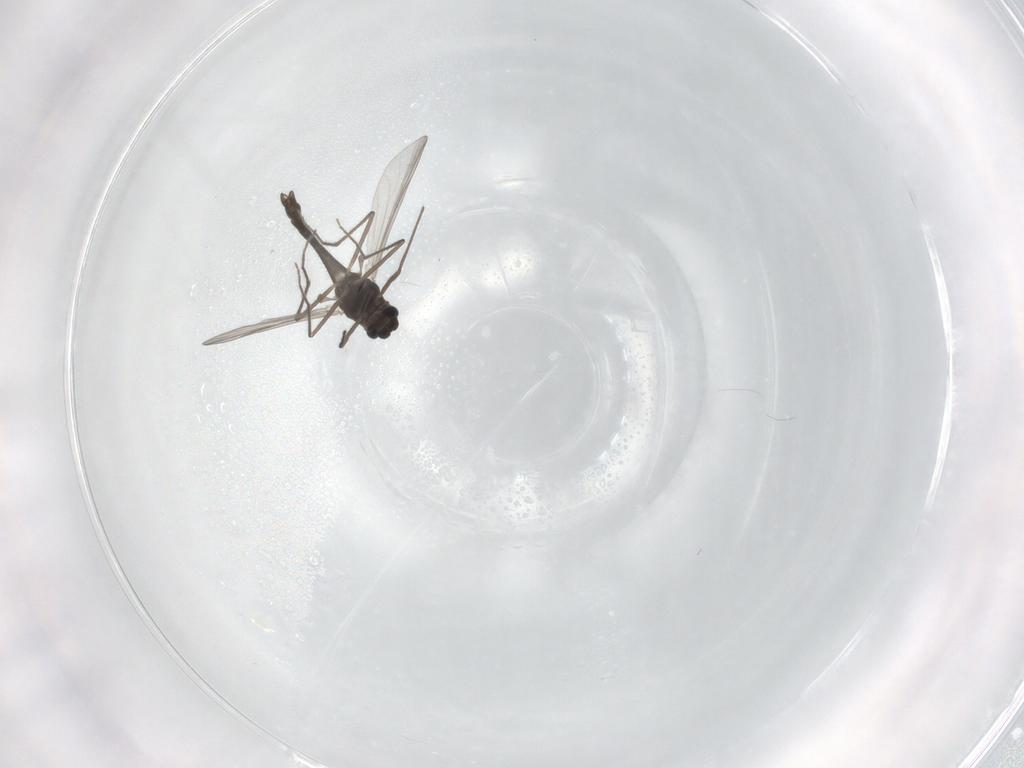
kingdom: Animalia
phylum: Arthropoda
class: Insecta
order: Diptera
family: Chironomidae
